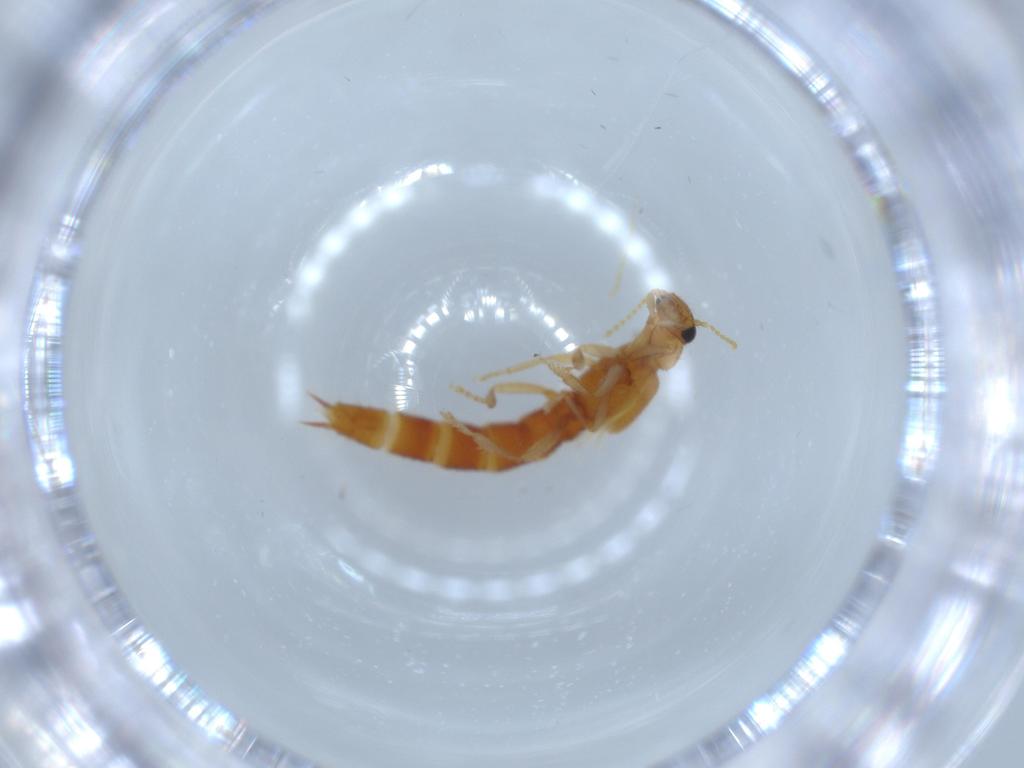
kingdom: Animalia
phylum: Arthropoda
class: Insecta
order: Coleoptera
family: Staphylinidae
